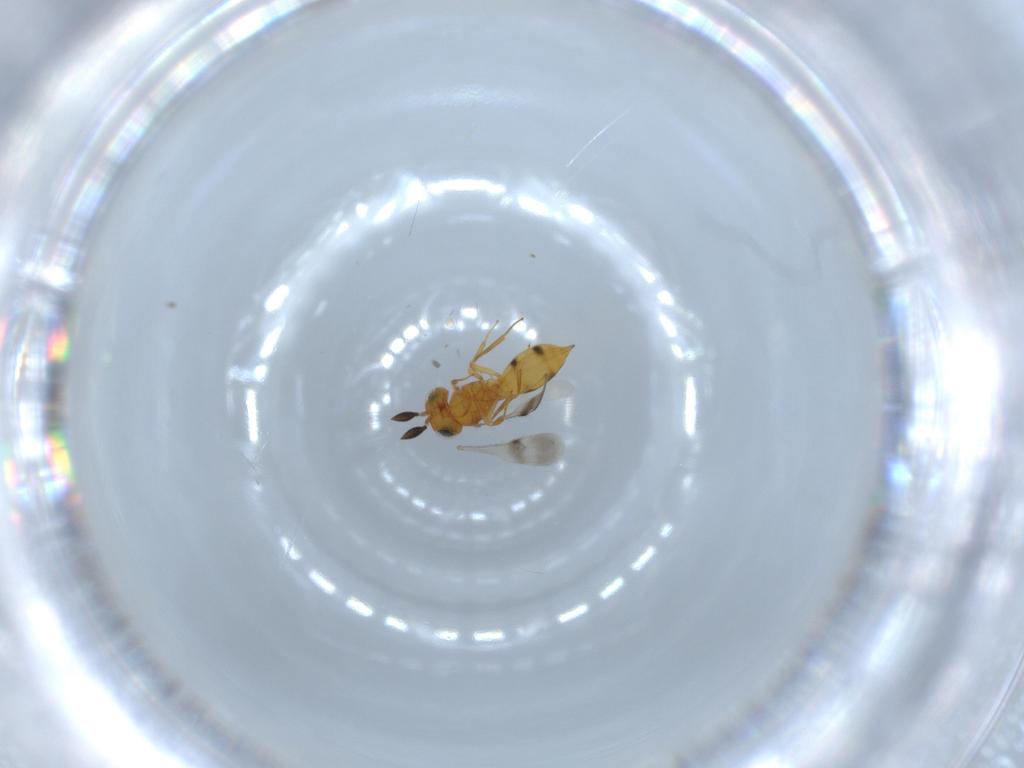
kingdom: Animalia
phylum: Arthropoda
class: Insecta
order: Hymenoptera
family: Scelionidae
